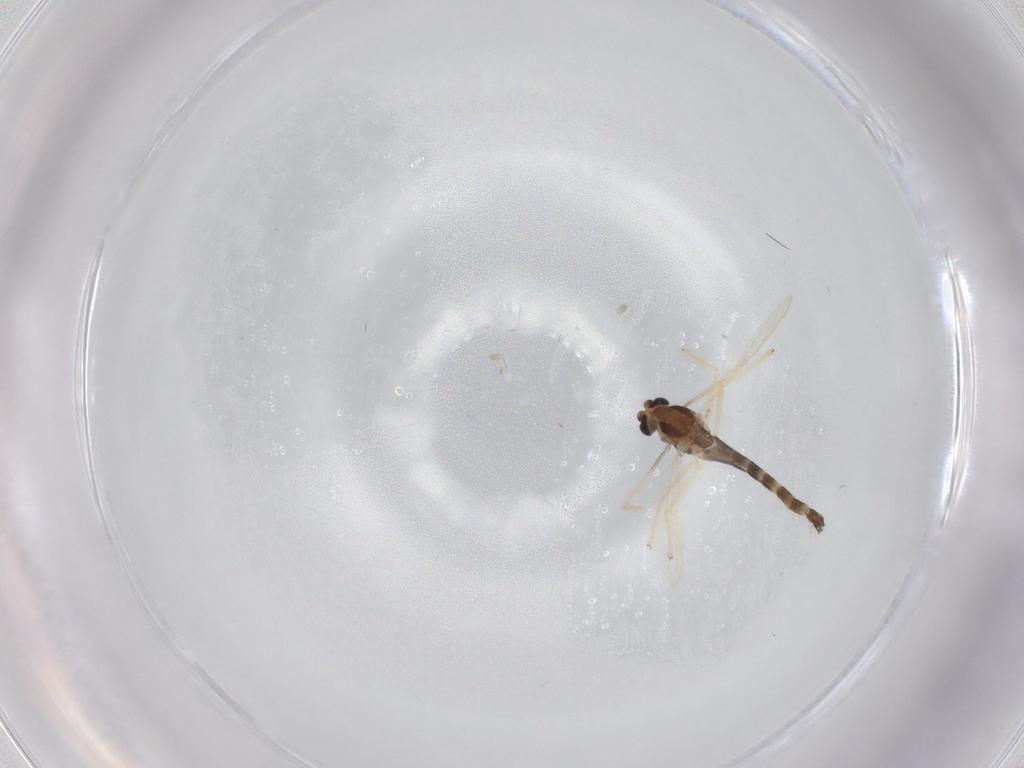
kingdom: Animalia
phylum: Arthropoda
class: Insecta
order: Diptera
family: Chironomidae
